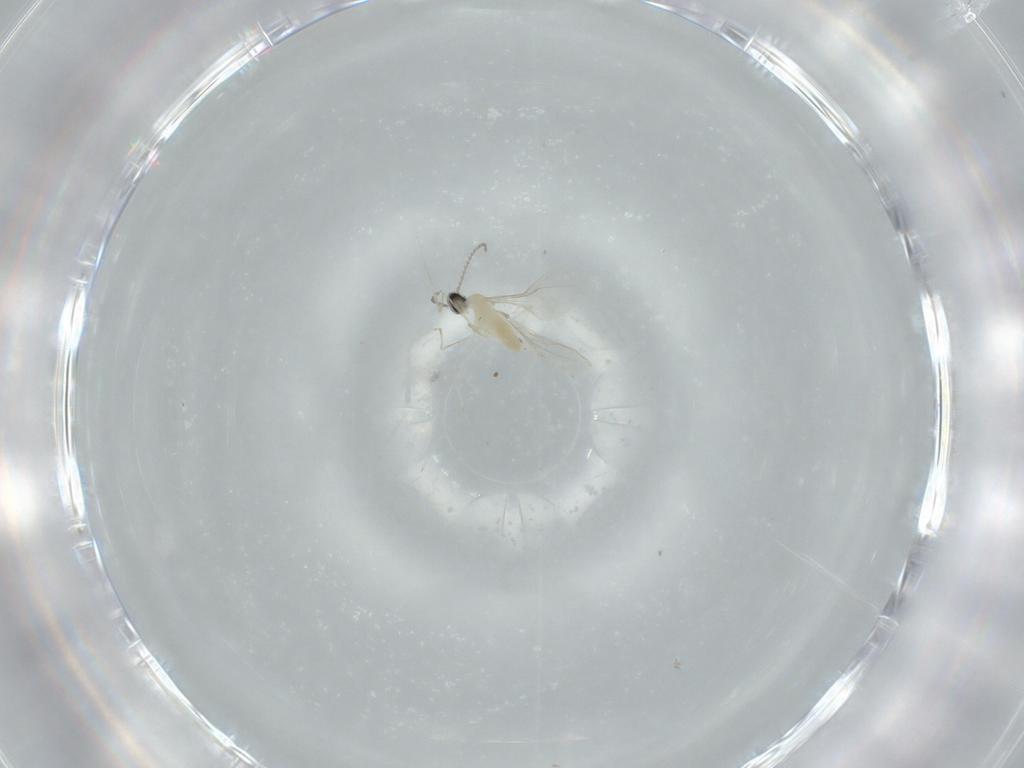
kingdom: Animalia
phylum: Arthropoda
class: Insecta
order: Diptera
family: Cecidomyiidae
